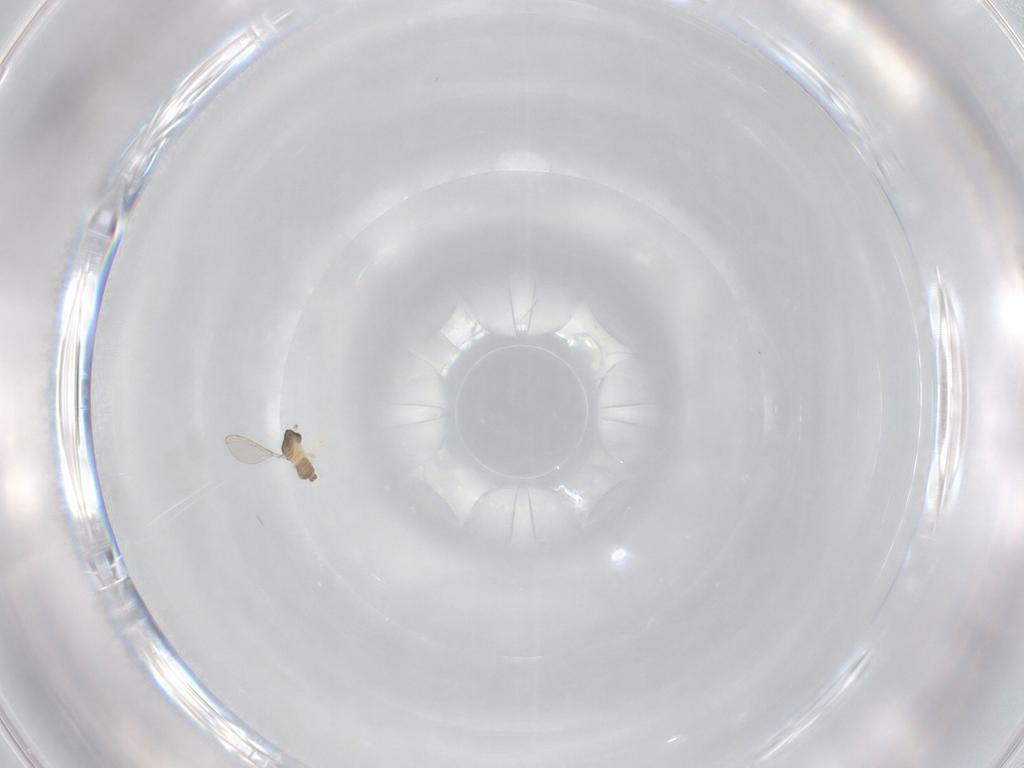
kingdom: Animalia
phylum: Arthropoda
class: Insecta
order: Diptera
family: Cecidomyiidae
